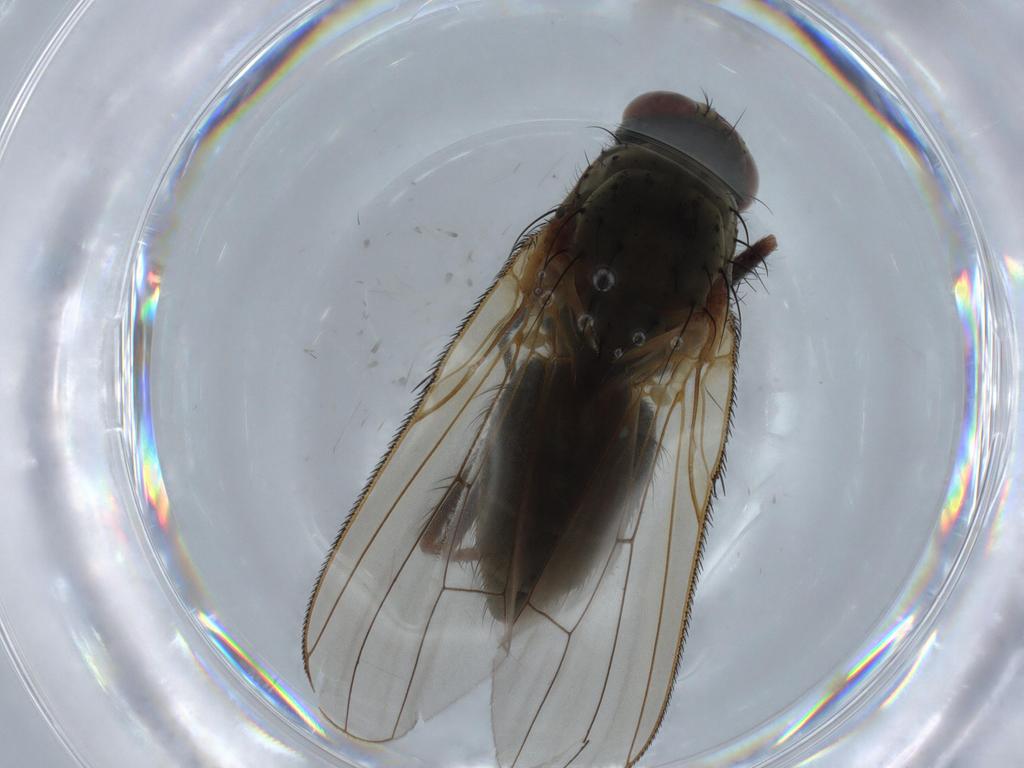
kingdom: Animalia
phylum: Arthropoda
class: Insecta
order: Diptera
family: Anthomyiidae
